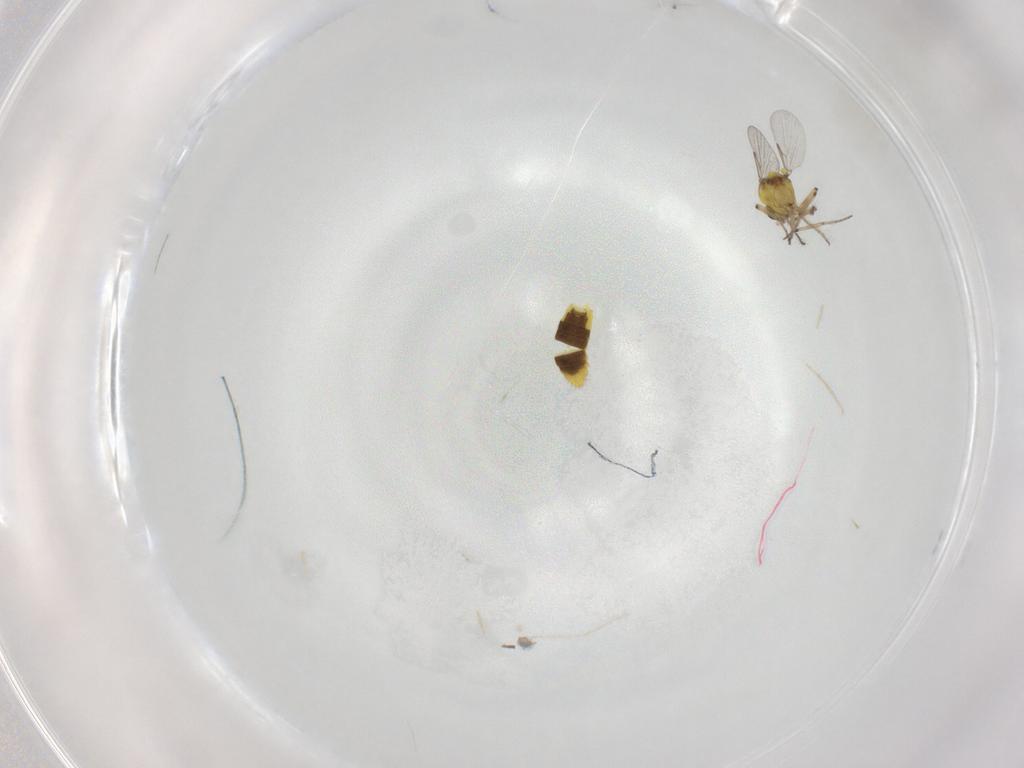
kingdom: Animalia
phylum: Arthropoda
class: Insecta
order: Diptera
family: Ceratopogonidae
